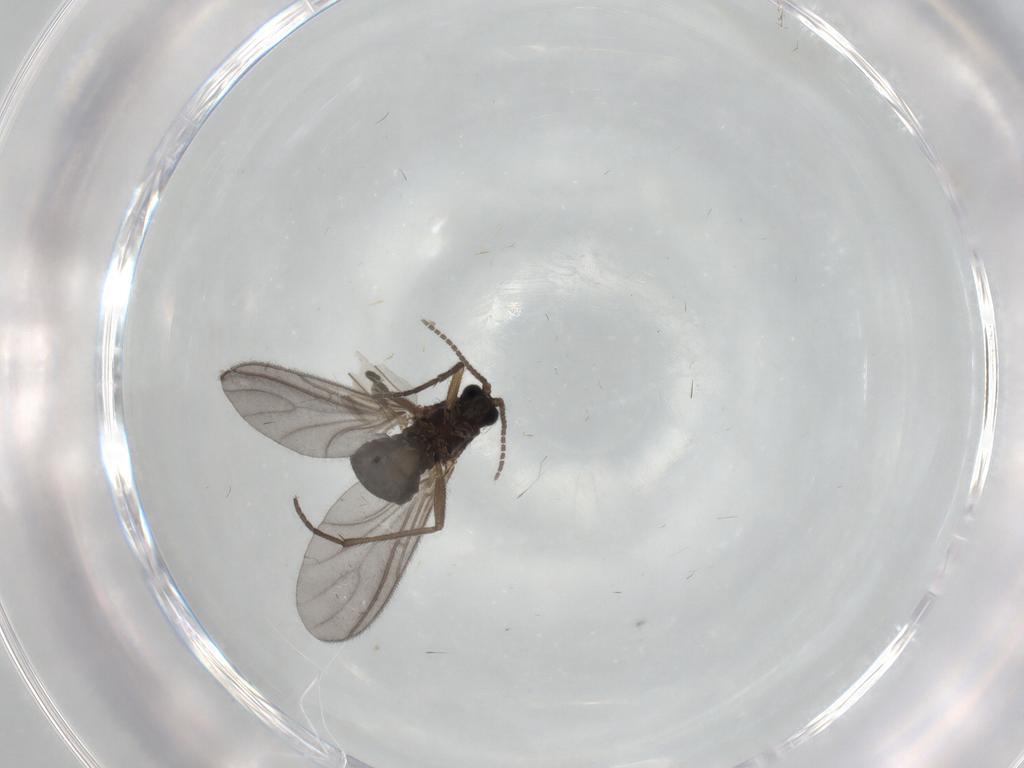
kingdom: Animalia
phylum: Arthropoda
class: Insecta
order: Diptera
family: Sciaridae
